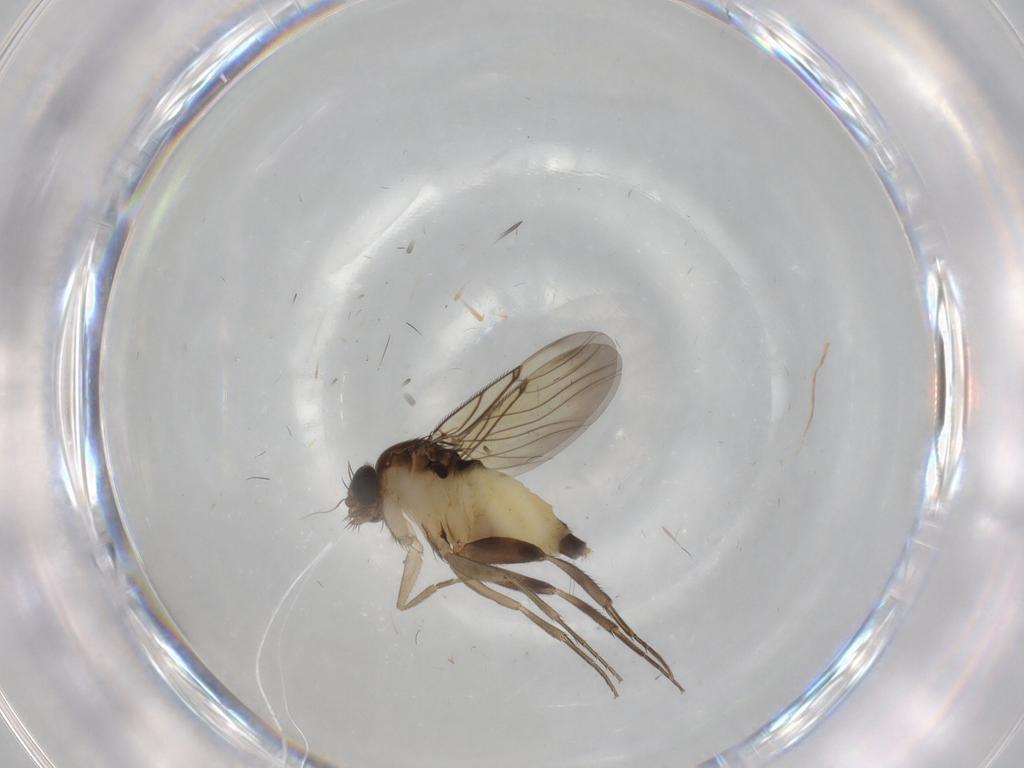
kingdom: Animalia
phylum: Arthropoda
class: Insecta
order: Diptera
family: Phoridae
